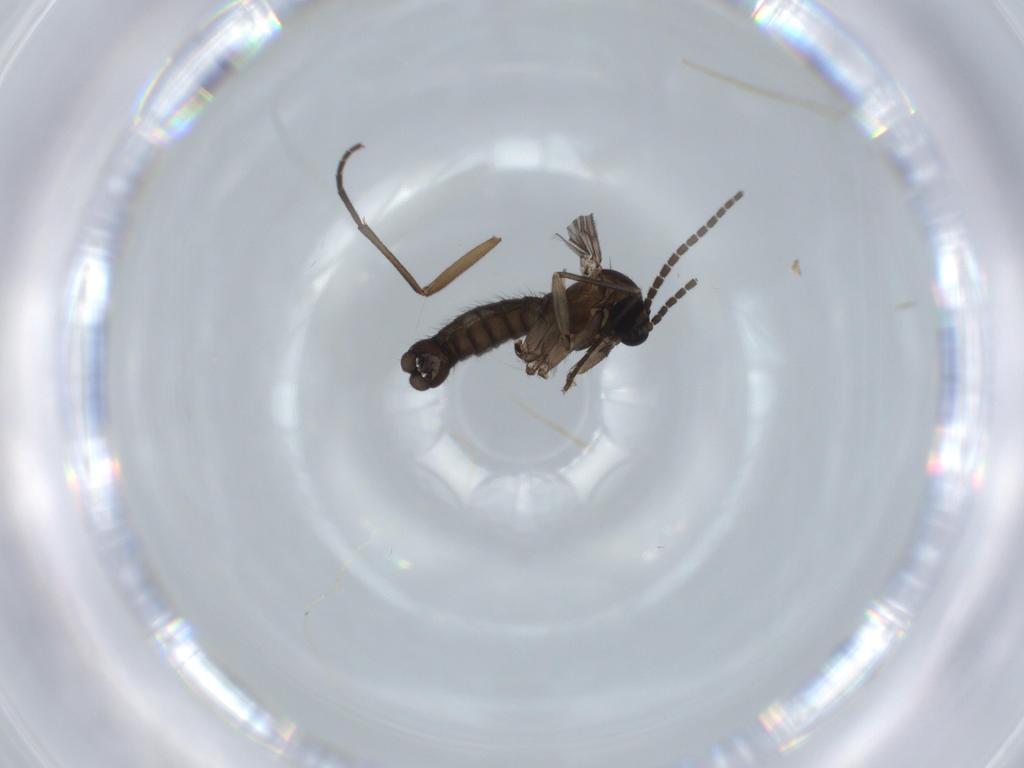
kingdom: Animalia
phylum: Arthropoda
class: Insecta
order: Diptera
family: Sciaridae
